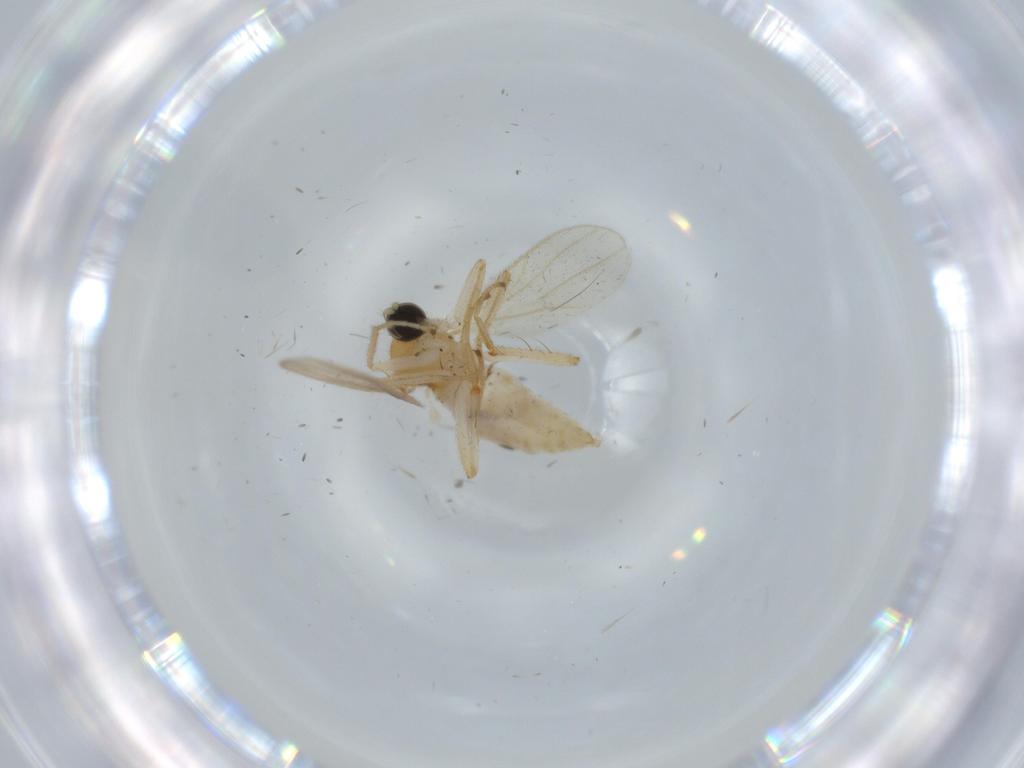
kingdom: Animalia
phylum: Arthropoda
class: Insecta
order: Diptera
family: Hybotidae
